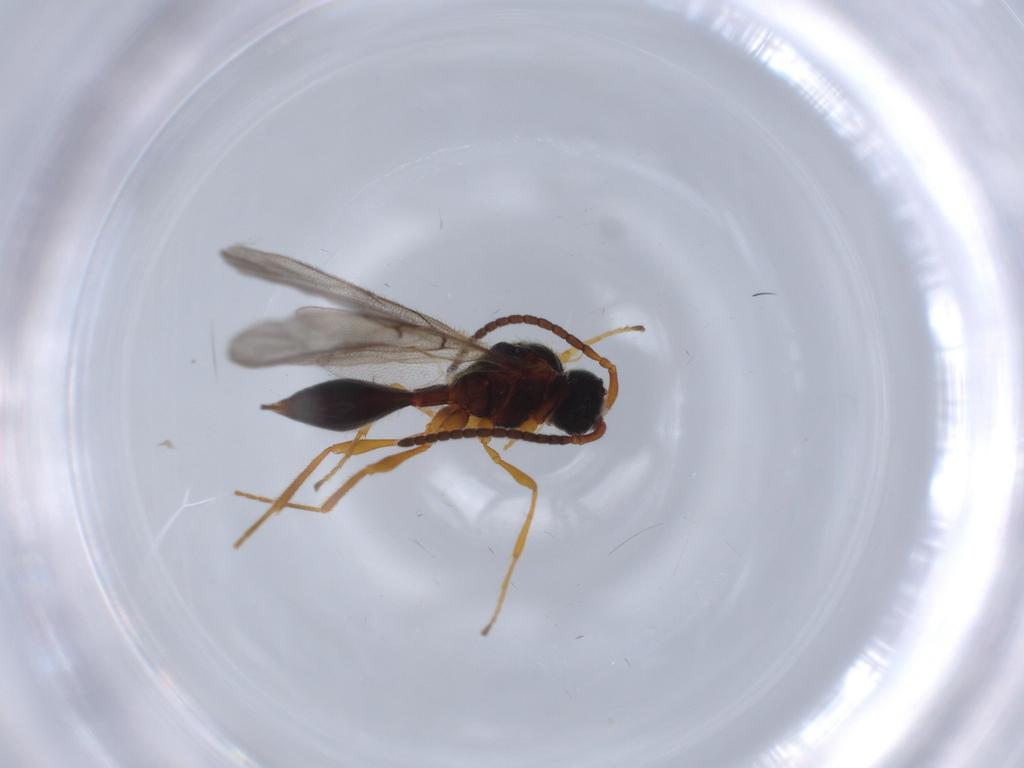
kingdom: Animalia
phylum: Arthropoda
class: Insecta
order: Hymenoptera
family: Diapriidae
